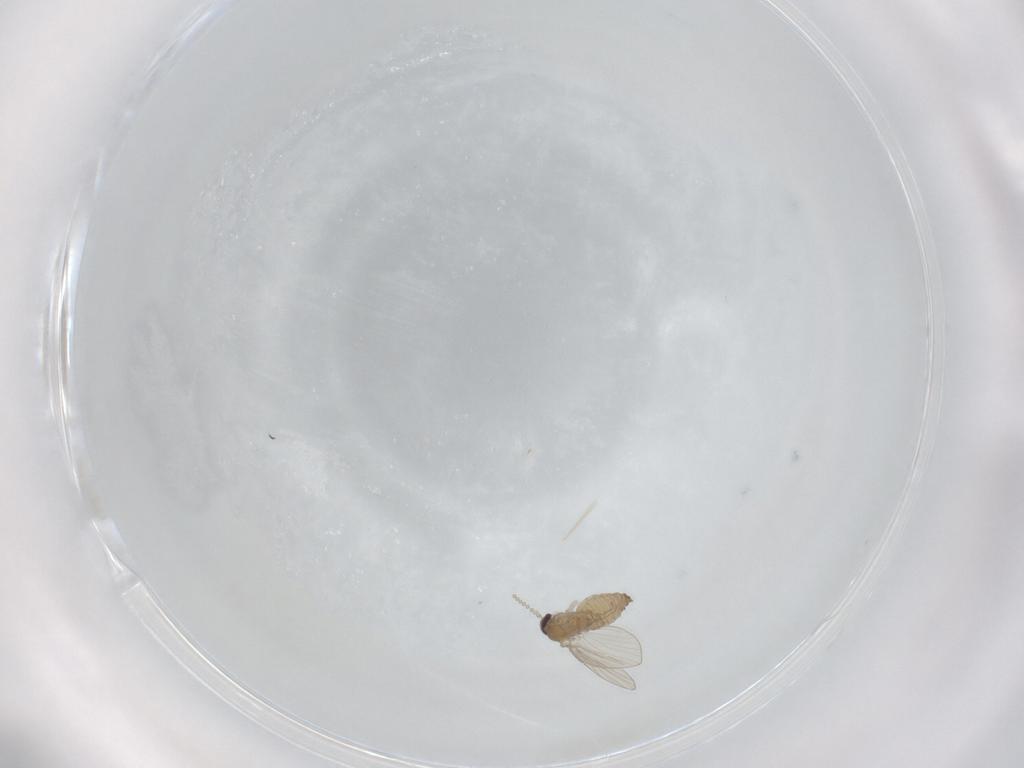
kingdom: Animalia
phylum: Arthropoda
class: Insecta
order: Diptera
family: Psychodidae
